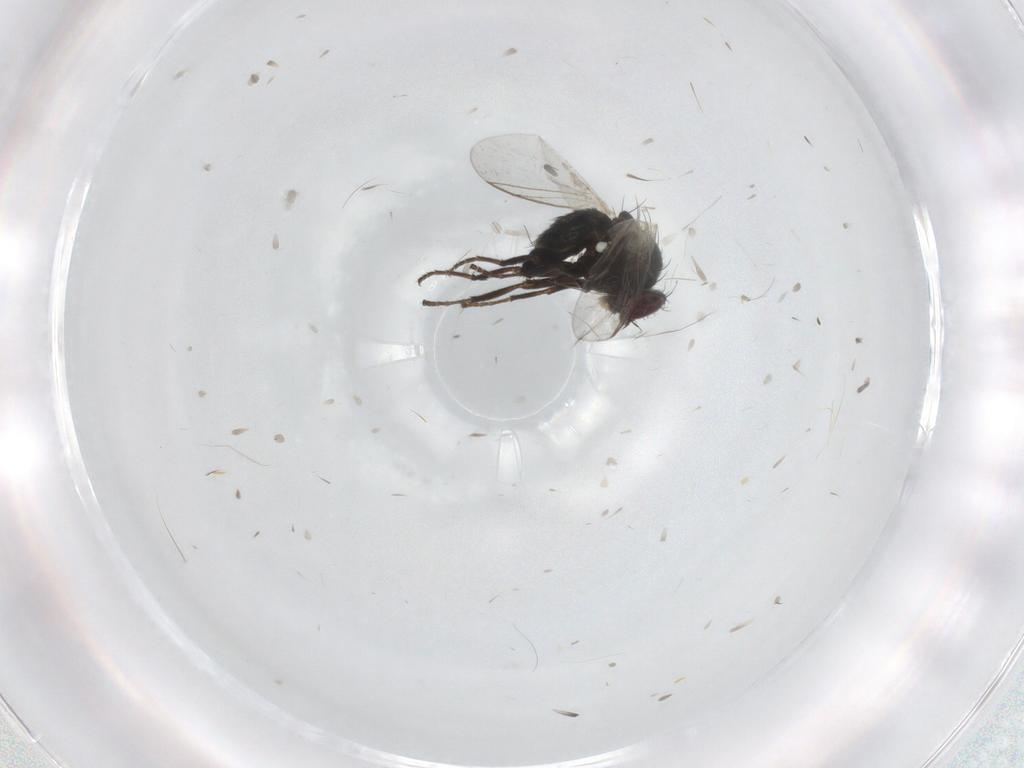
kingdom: Animalia
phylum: Arthropoda
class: Insecta
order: Diptera
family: Agromyzidae
